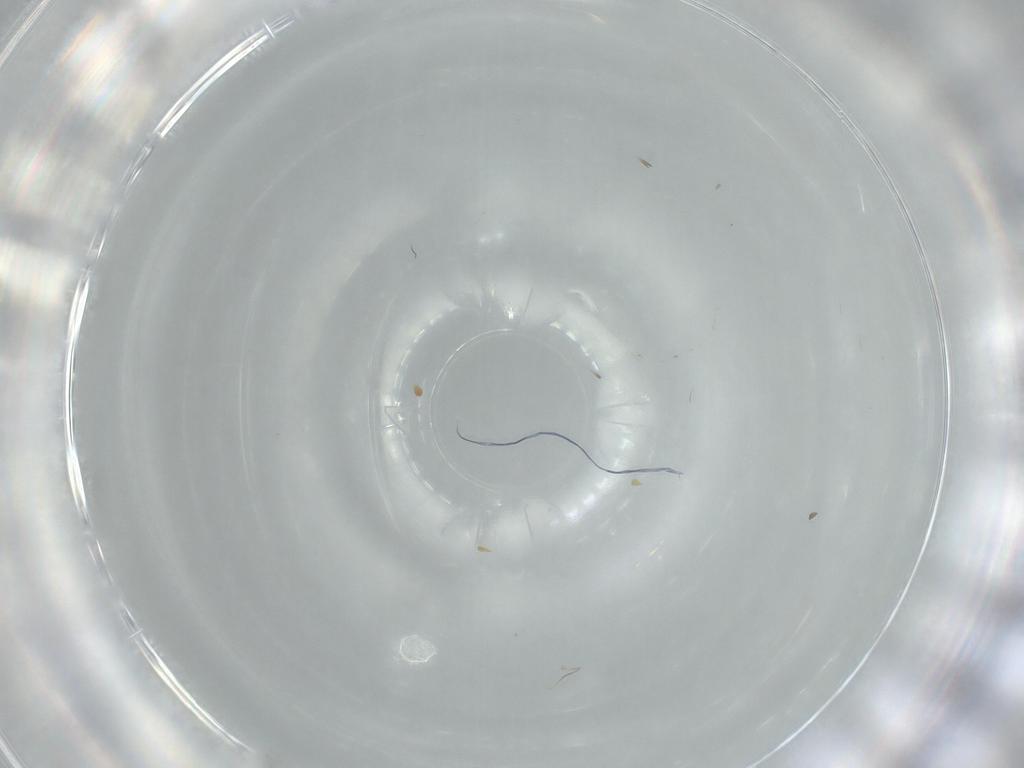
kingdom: Animalia
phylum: Arthropoda
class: Insecta
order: Hymenoptera
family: Mymaridae
